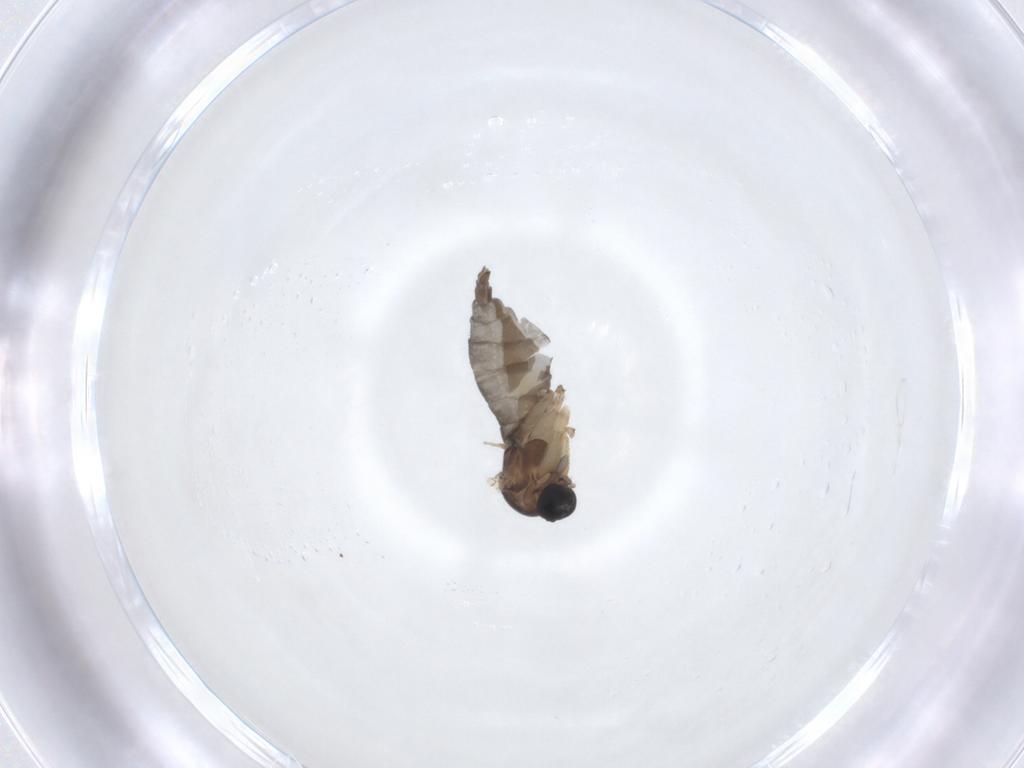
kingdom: Animalia
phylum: Arthropoda
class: Insecta
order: Diptera
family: Sciaridae
